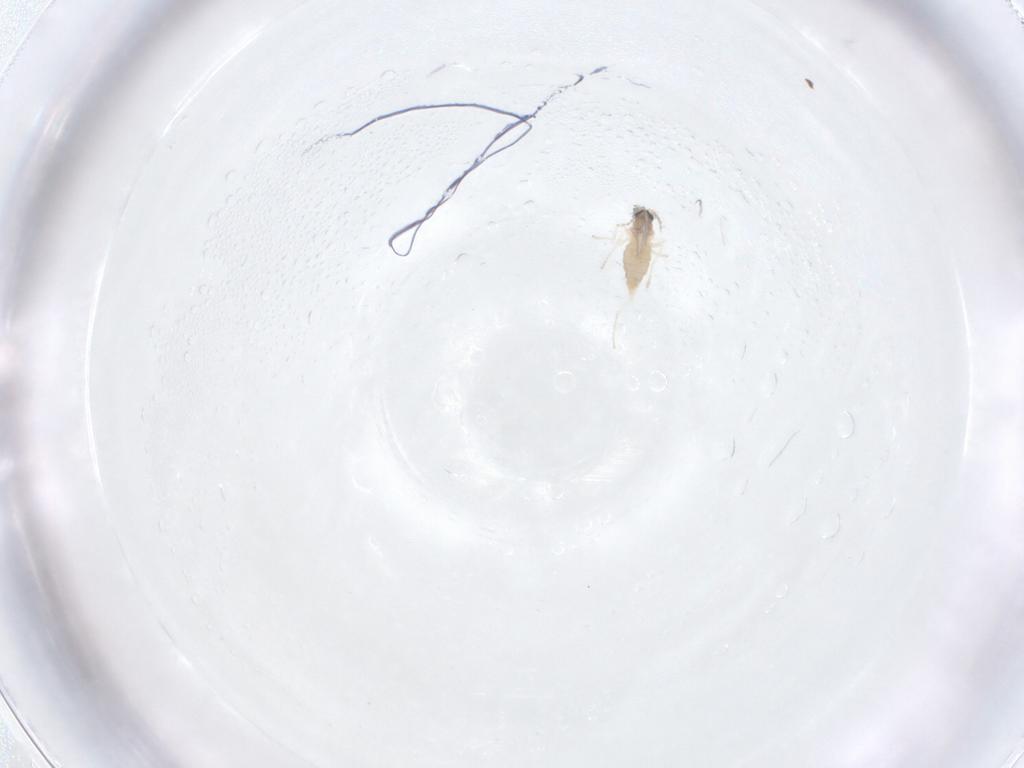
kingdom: Animalia
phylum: Arthropoda
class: Insecta
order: Diptera
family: Cecidomyiidae
